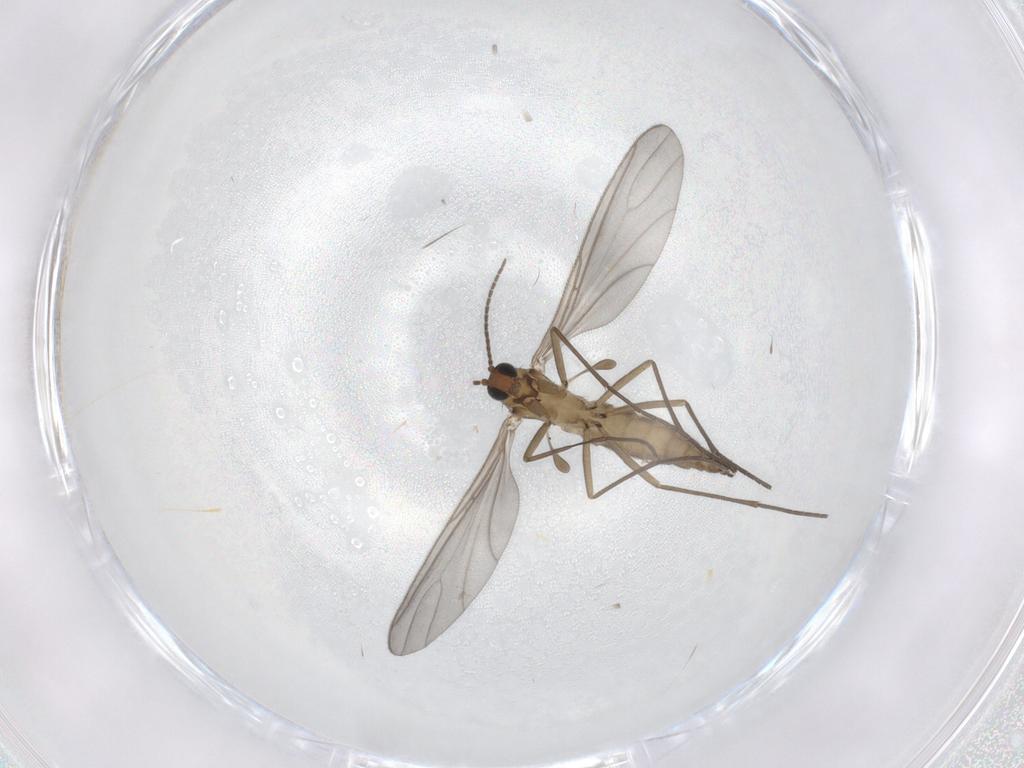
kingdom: Animalia
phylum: Arthropoda
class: Insecta
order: Diptera
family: Sciaridae
